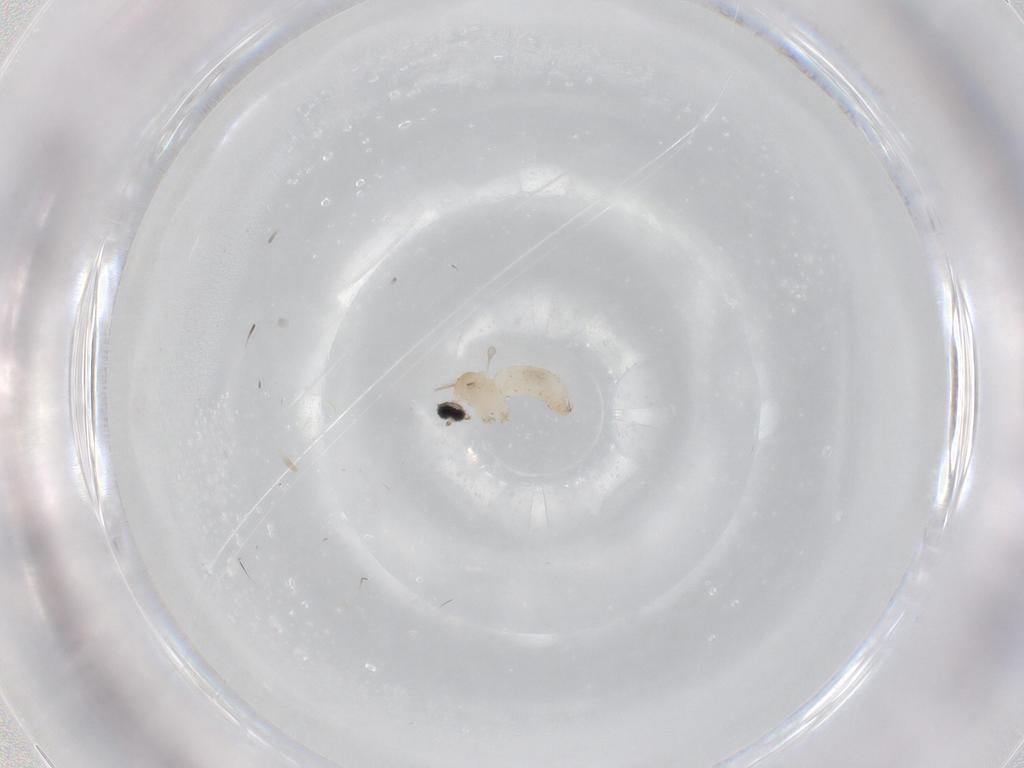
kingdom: Animalia
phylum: Arthropoda
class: Insecta
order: Diptera
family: Cecidomyiidae
